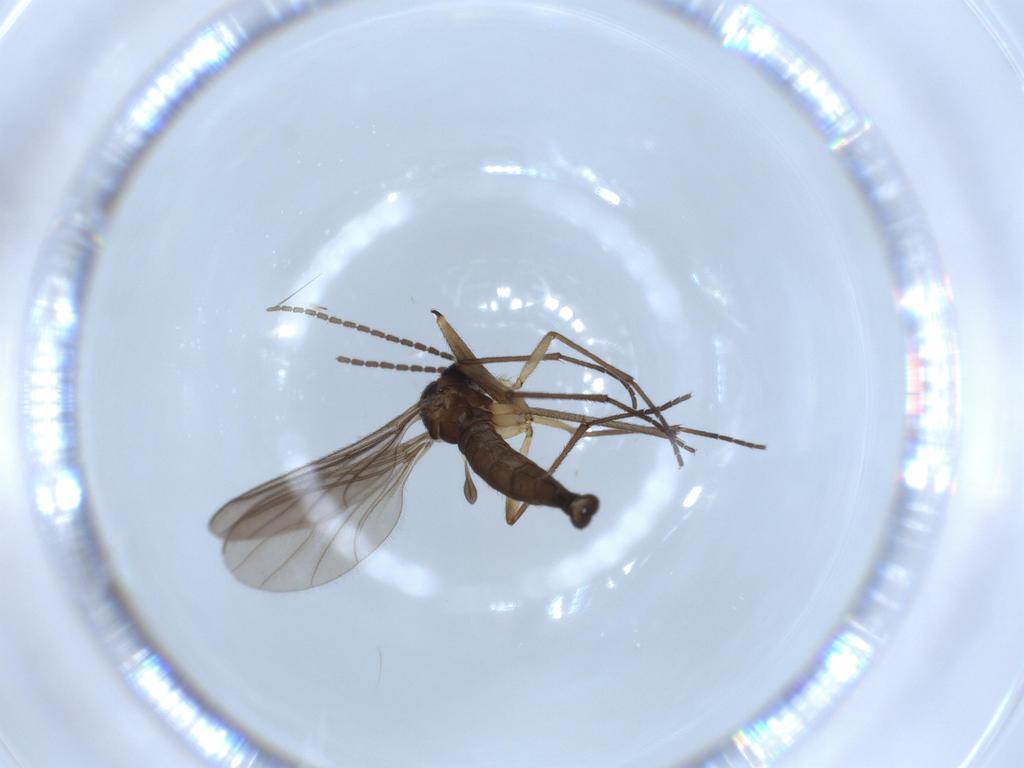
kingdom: Animalia
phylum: Arthropoda
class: Insecta
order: Diptera
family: Sciaridae
